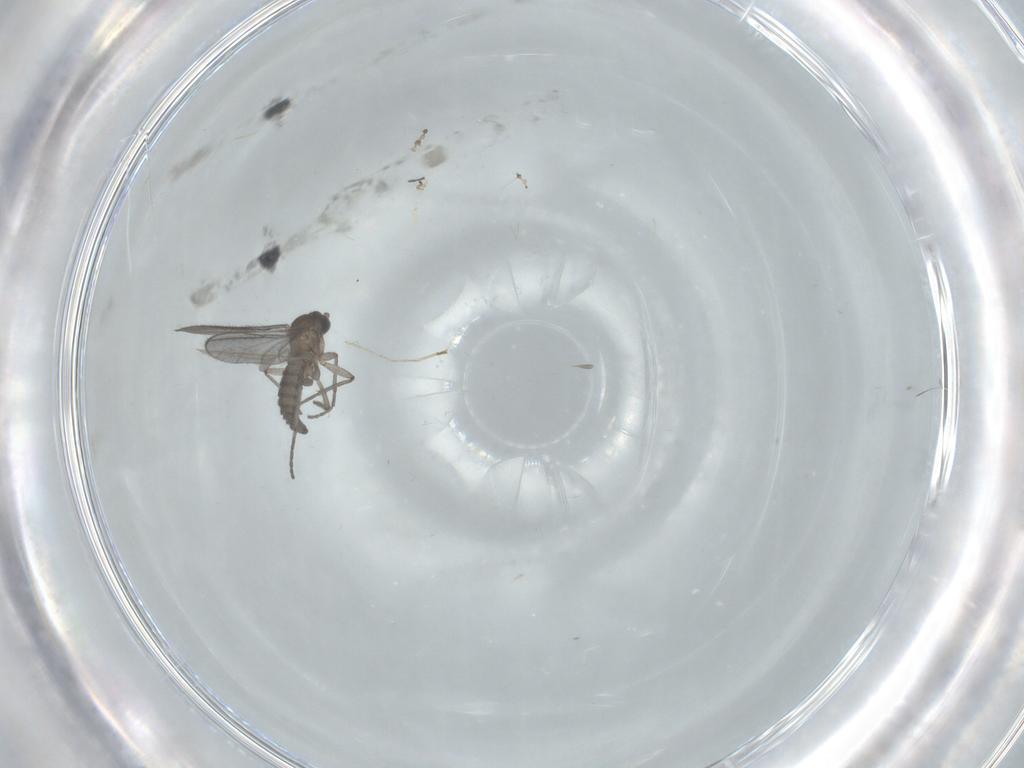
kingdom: Animalia
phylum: Arthropoda
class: Insecta
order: Diptera
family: Sciaridae
